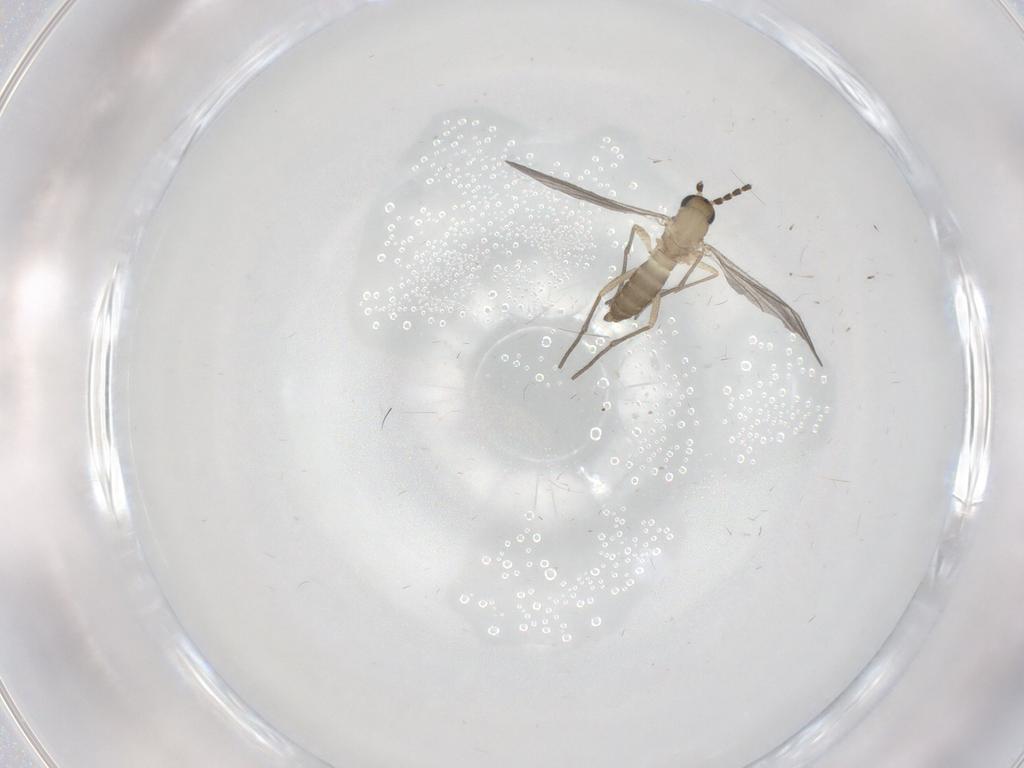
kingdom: Animalia
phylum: Arthropoda
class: Insecta
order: Diptera
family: Sciaridae
